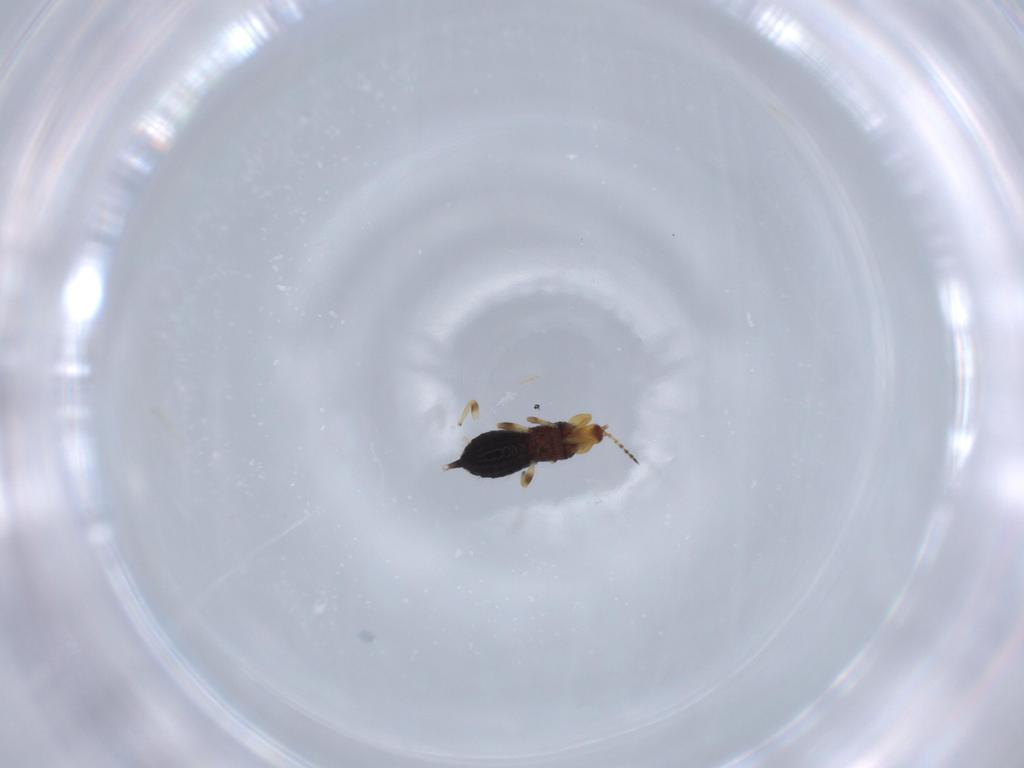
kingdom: Animalia
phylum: Arthropoda
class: Insecta
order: Thysanoptera
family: Phlaeothripidae
